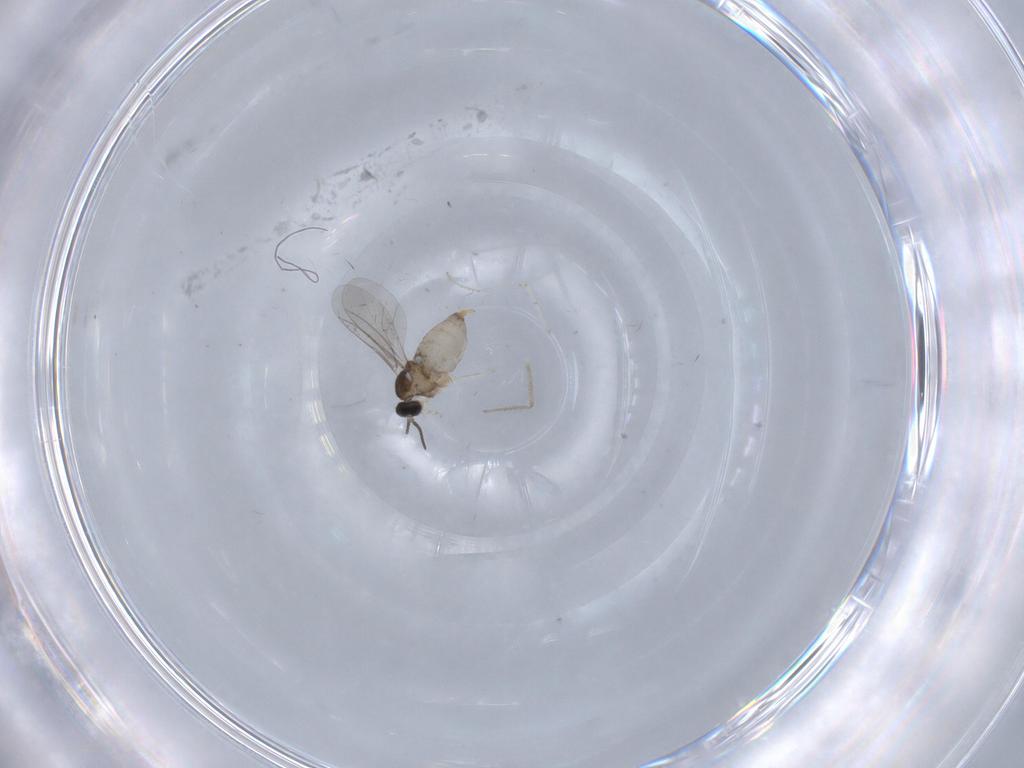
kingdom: Animalia
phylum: Arthropoda
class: Insecta
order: Diptera
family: Cecidomyiidae
